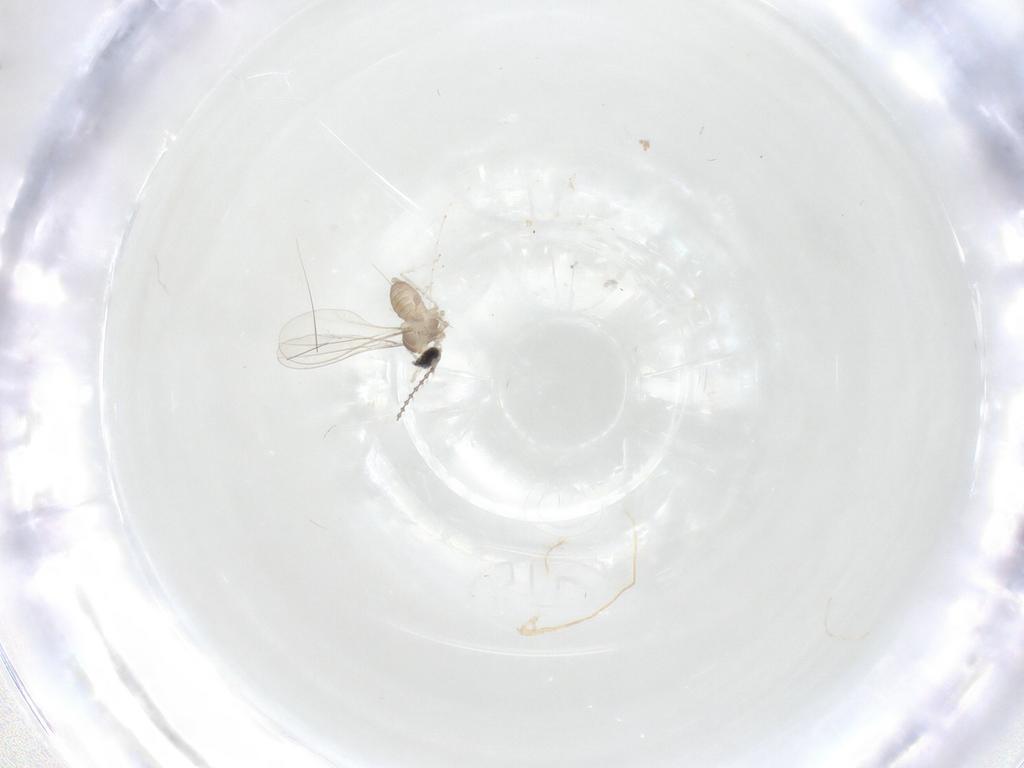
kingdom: Animalia
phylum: Arthropoda
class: Insecta
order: Diptera
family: Cecidomyiidae
